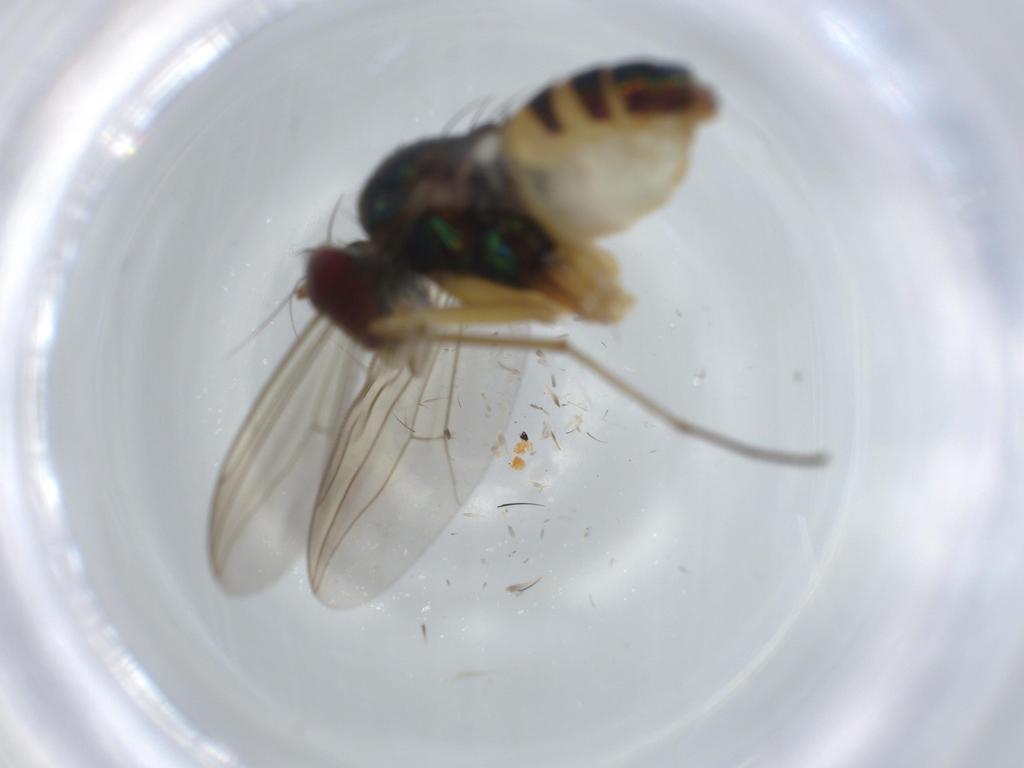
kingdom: Animalia
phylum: Arthropoda
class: Insecta
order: Diptera
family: Dolichopodidae
